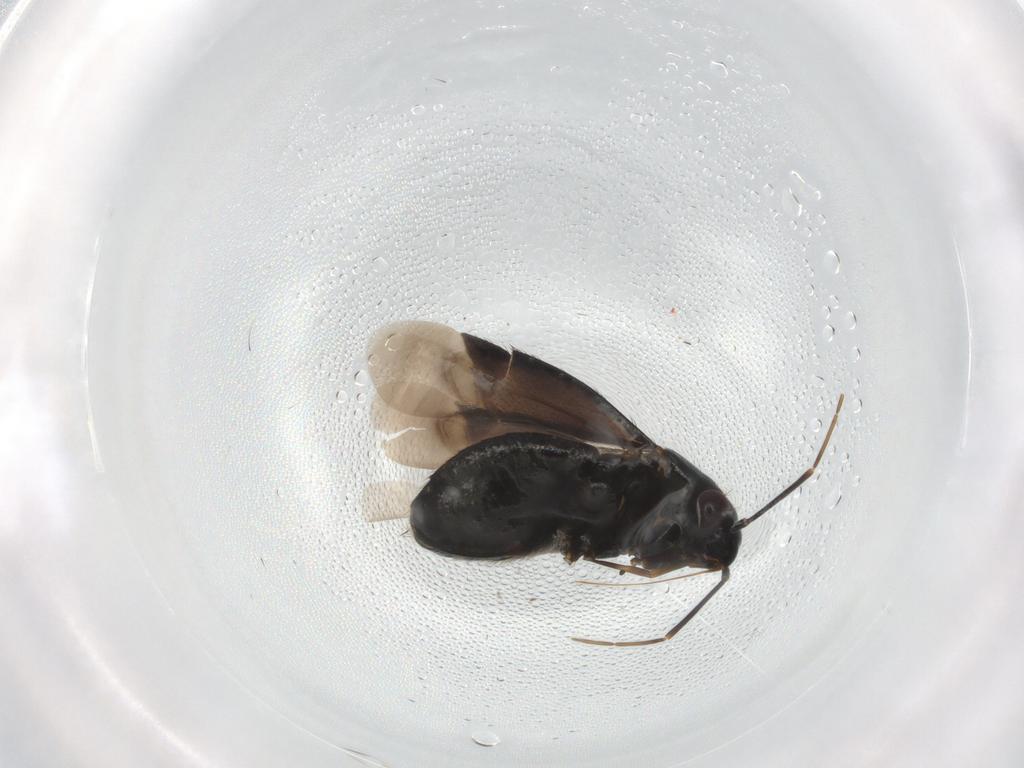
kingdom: Animalia
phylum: Arthropoda
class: Insecta
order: Hemiptera
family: Miridae
